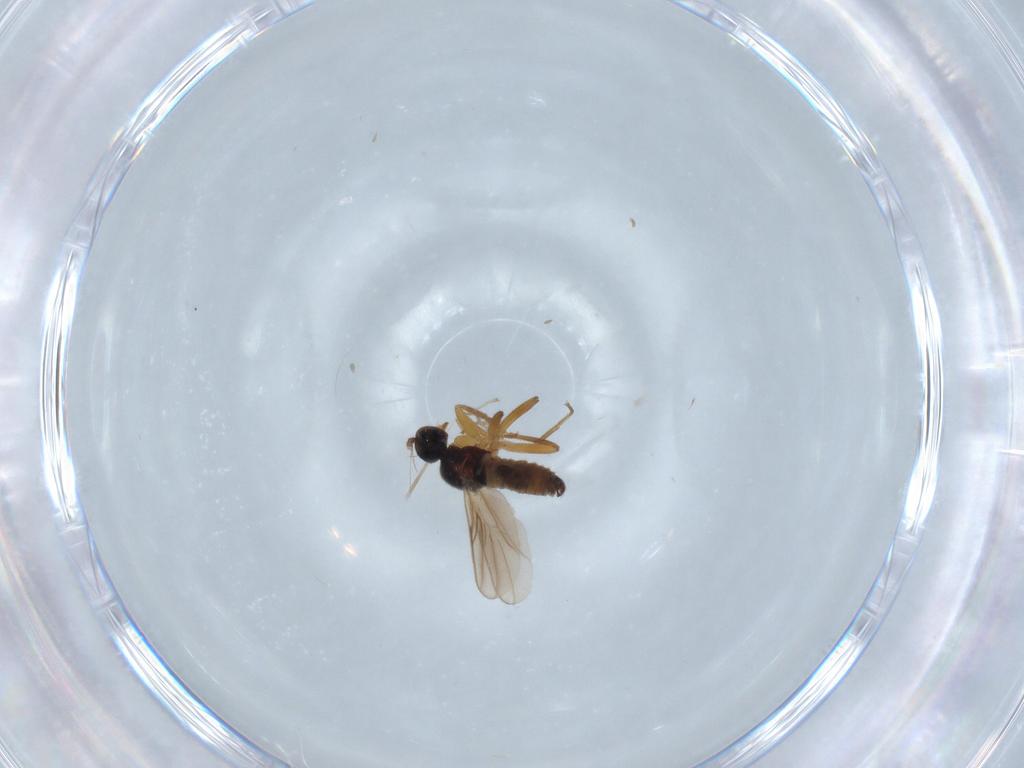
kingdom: Animalia
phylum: Arthropoda
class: Insecta
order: Diptera
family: Hybotidae
